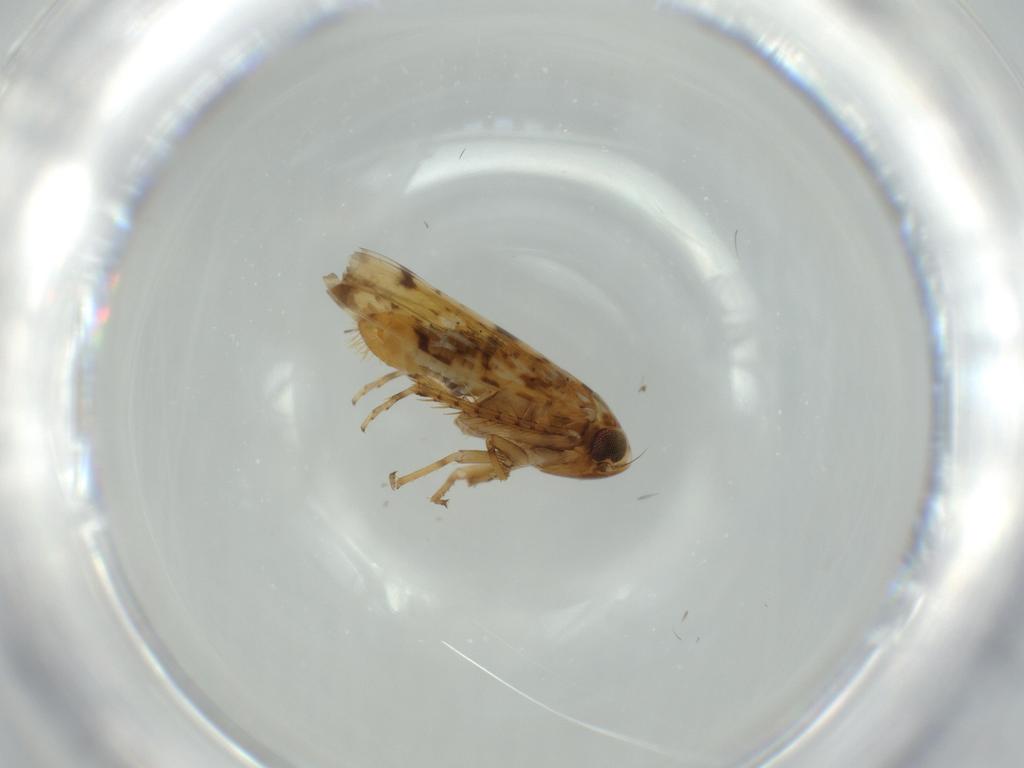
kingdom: Animalia
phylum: Arthropoda
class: Insecta
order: Hemiptera
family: Cicadellidae
